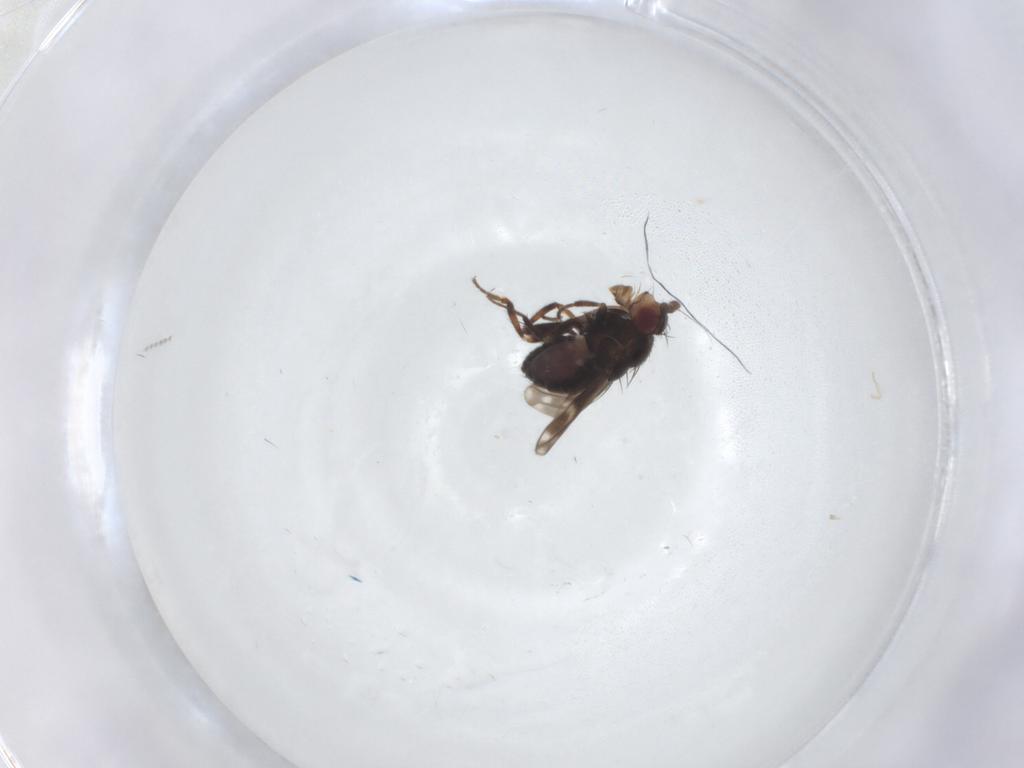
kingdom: Animalia
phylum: Arthropoda
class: Insecta
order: Diptera
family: Sphaeroceridae
